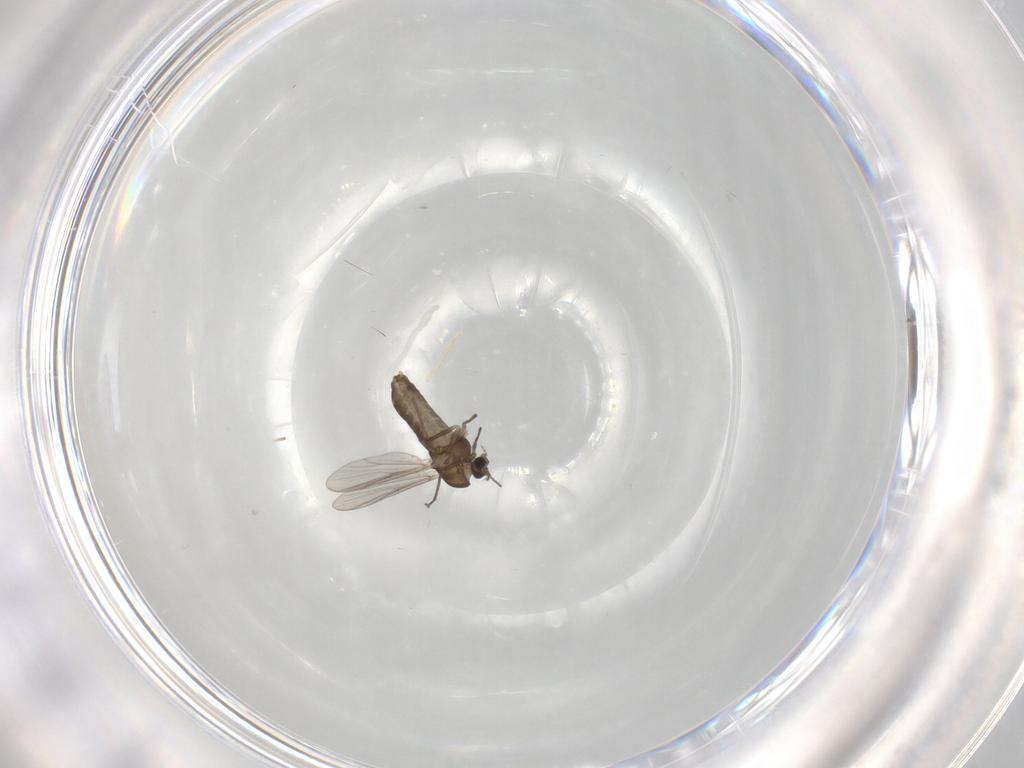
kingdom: Animalia
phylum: Arthropoda
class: Insecta
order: Diptera
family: Chironomidae
